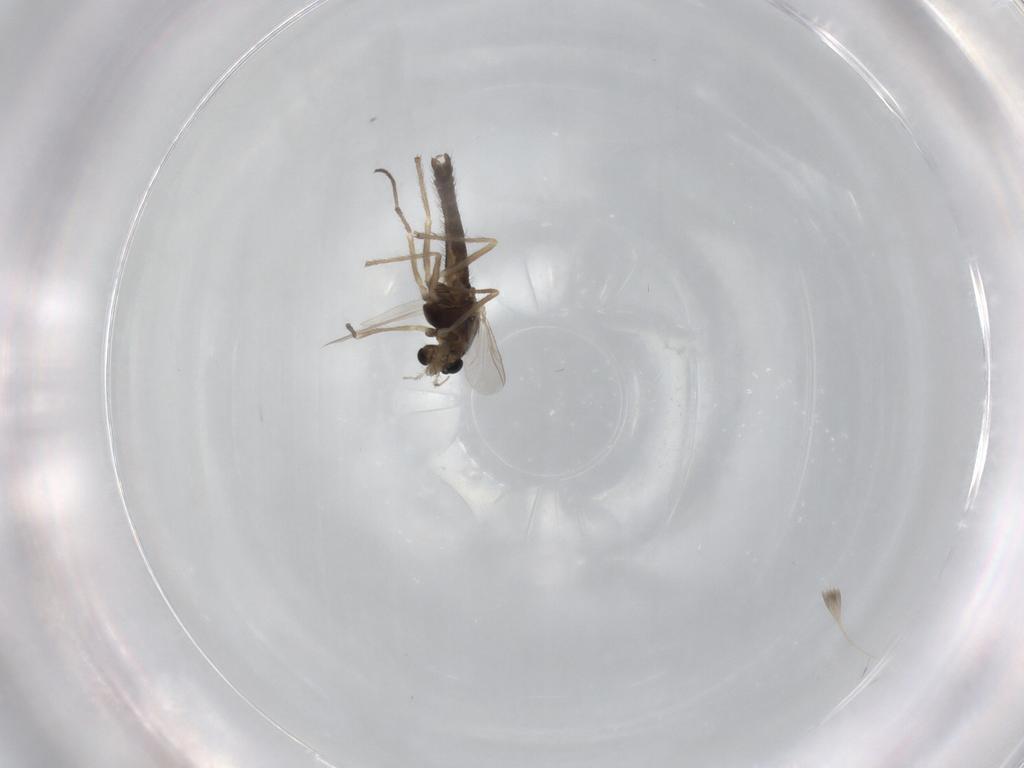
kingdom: Animalia
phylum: Arthropoda
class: Insecta
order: Diptera
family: Chironomidae
